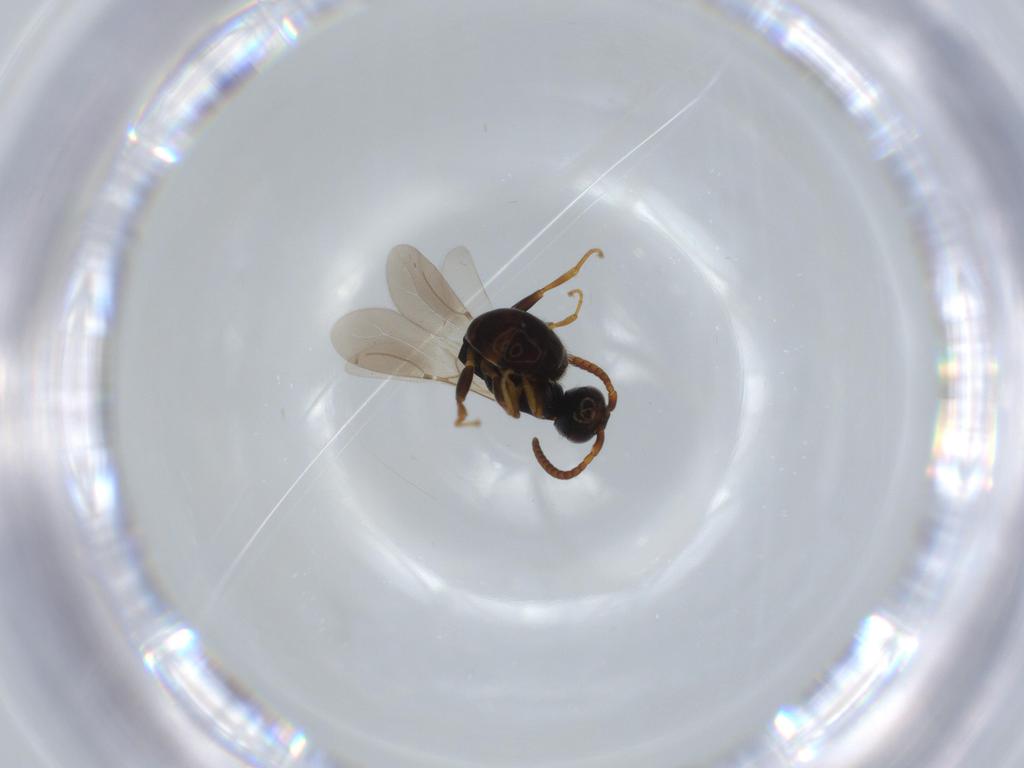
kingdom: Animalia
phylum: Arthropoda
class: Insecta
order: Hymenoptera
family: Bethylidae
